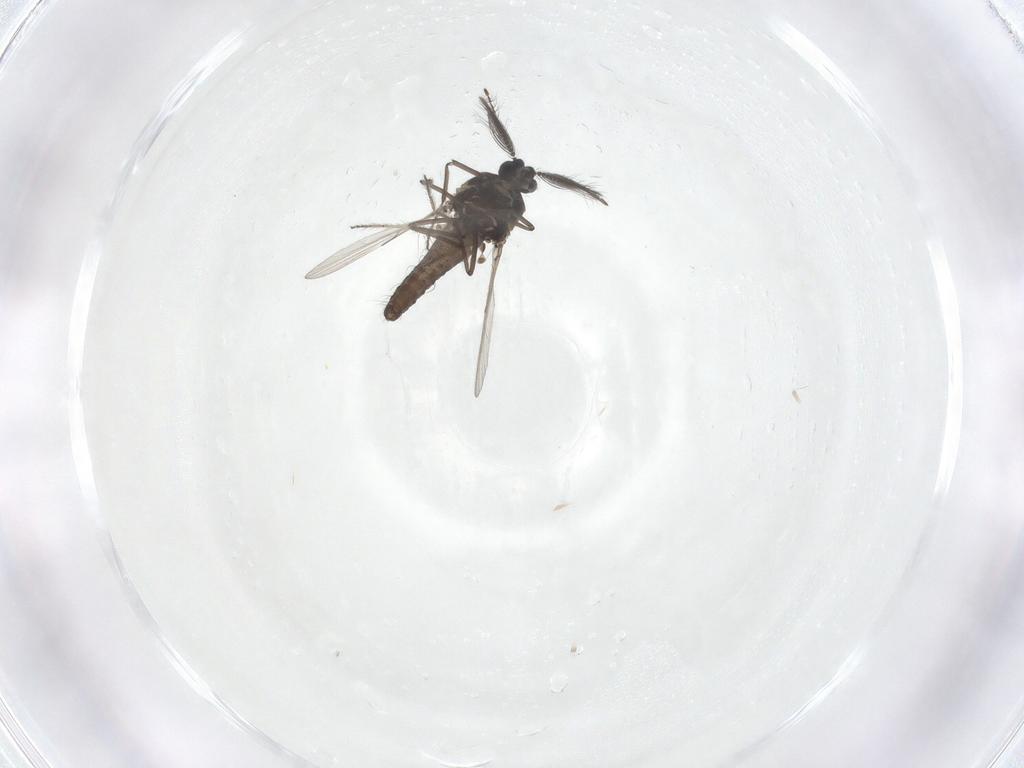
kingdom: Animalia
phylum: Arthropoda
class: Insecta
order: Diptera
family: Ceratopogonidae
